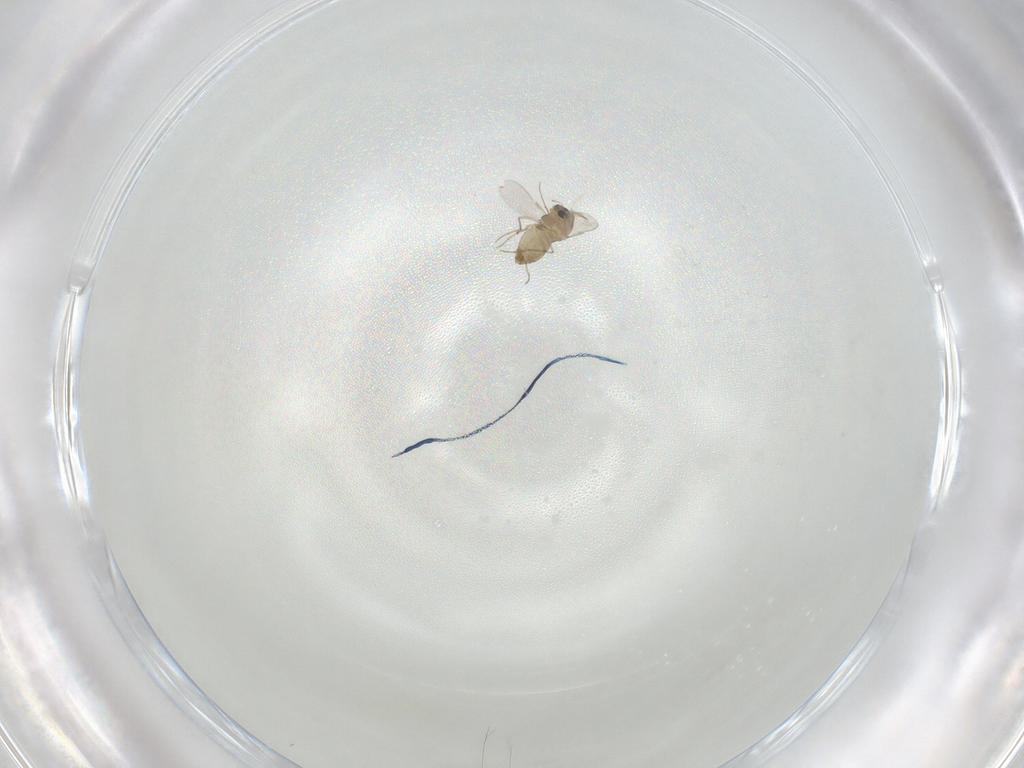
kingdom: Animalia
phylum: Arthropoda
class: Insecta
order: Diptera
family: Chironomidae
